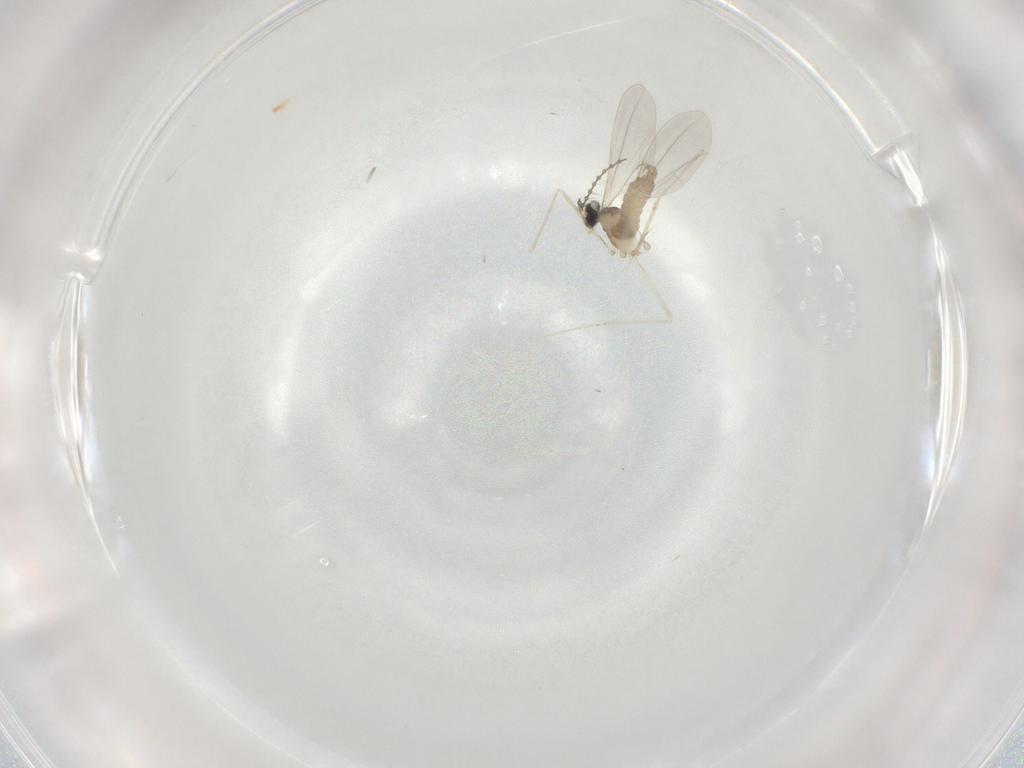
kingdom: Animalia
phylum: Arthropoda
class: Insecta
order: Diptera
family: Cecidomyiidae
